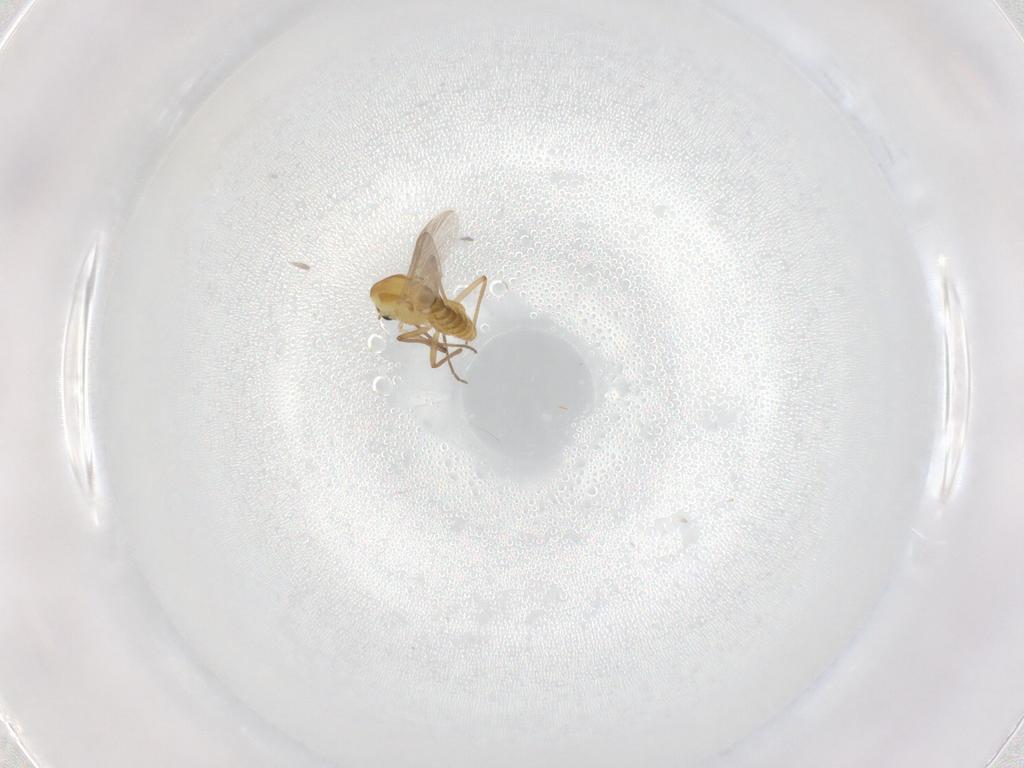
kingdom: Animalia
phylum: Arthropoda
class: Insecta
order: Diptera
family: Chironomidae
